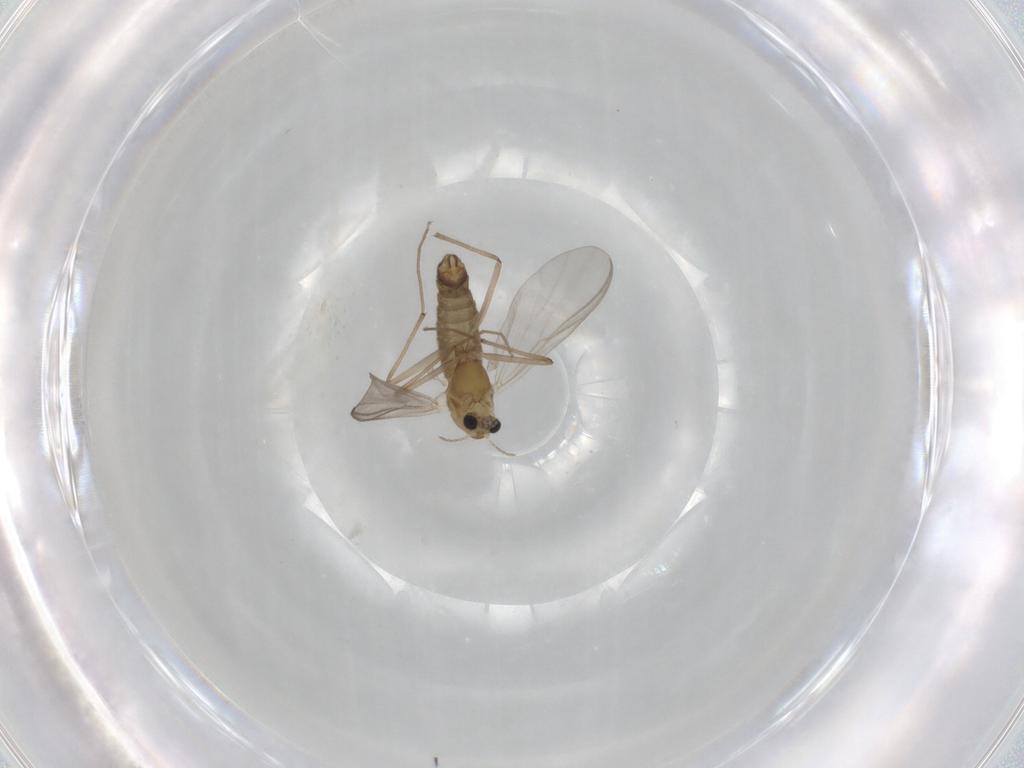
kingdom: Animalia
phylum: Arthropoda
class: Insecta
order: Diptera
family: Chironomidae
